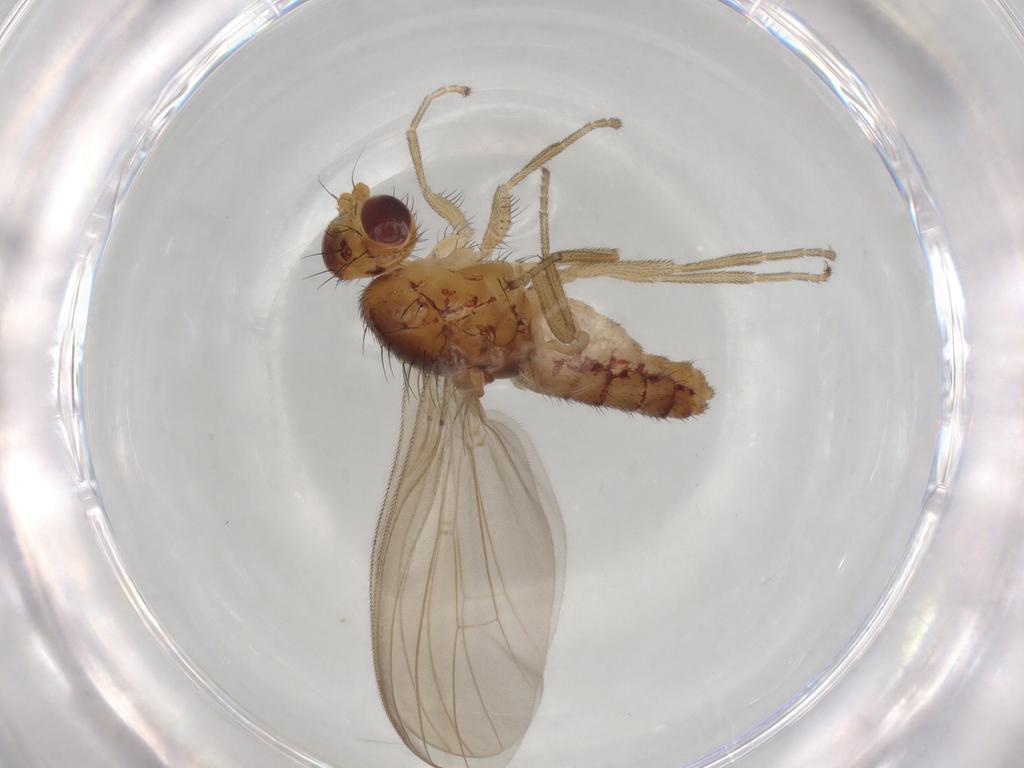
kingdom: Animalia
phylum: Arthropoda
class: Insecta
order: Diptera
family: Natalimyzidae
